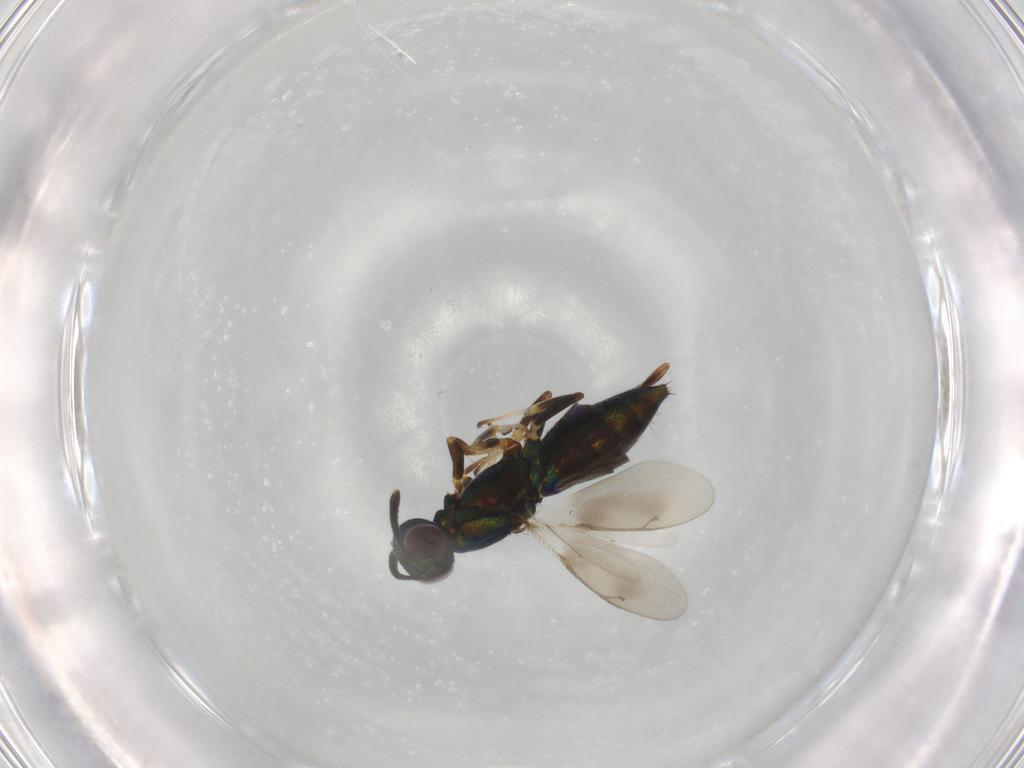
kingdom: Animalia
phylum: Arthropoda
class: Insecta
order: Hymenoptera
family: Eupelmidae
